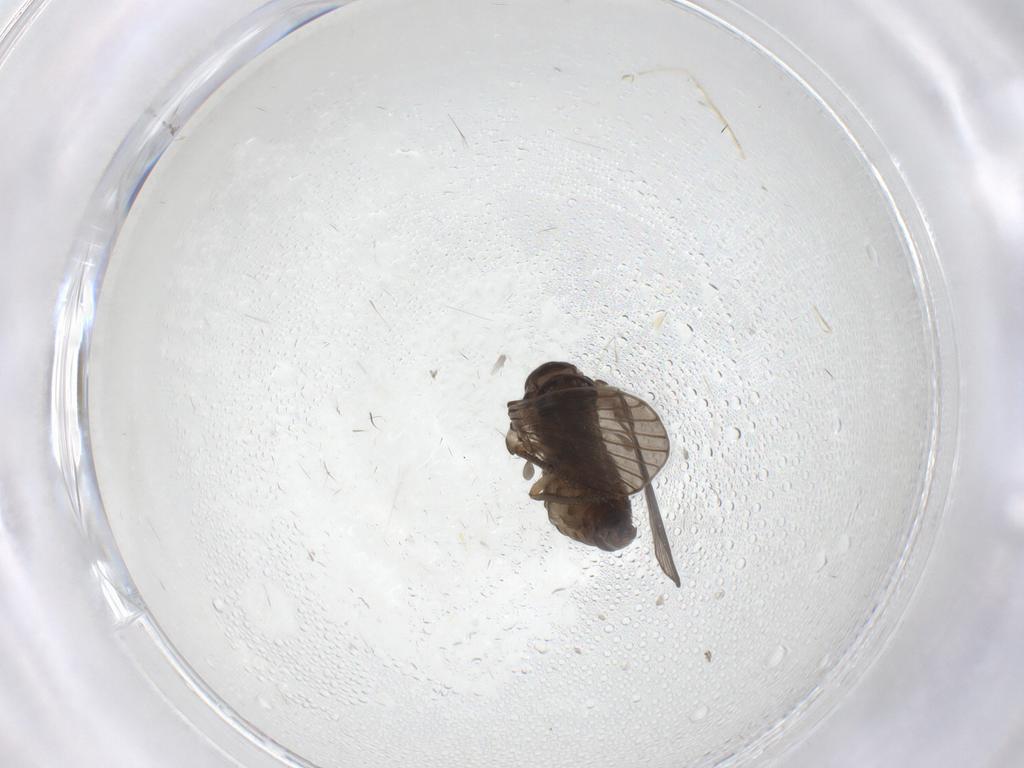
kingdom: Animalia
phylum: Arthropoda
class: Insecta
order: Diptera
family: Psychodidae
